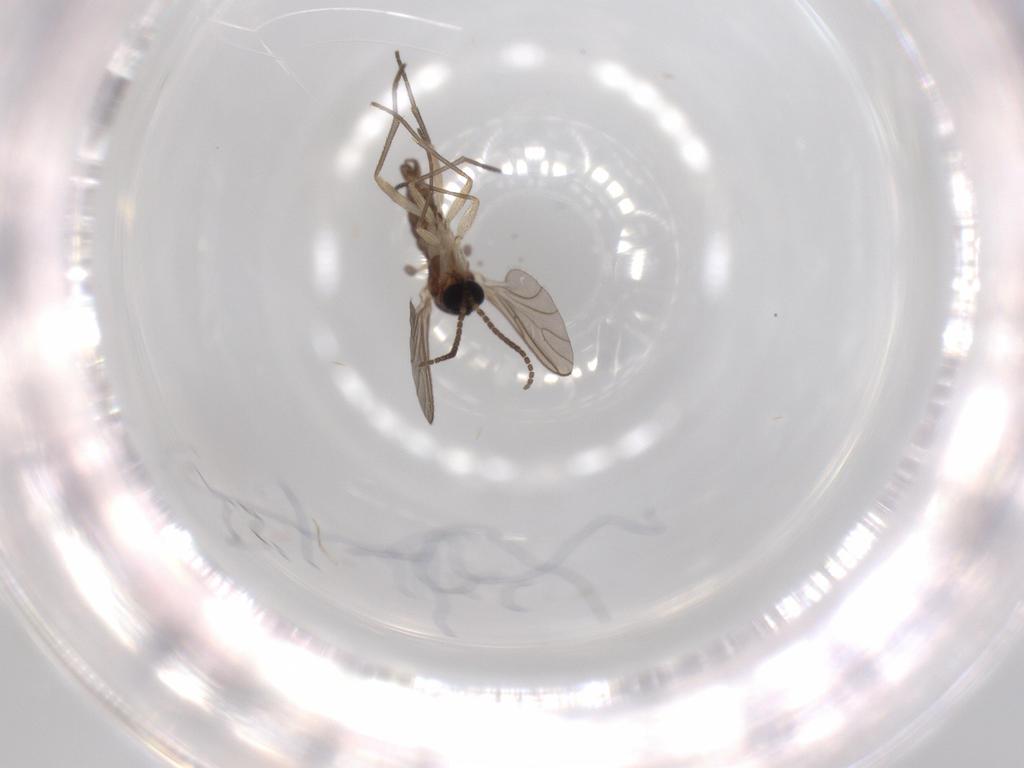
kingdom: Animalia
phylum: Arthropoda
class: Insecta
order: Diptera
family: Sciaridae
